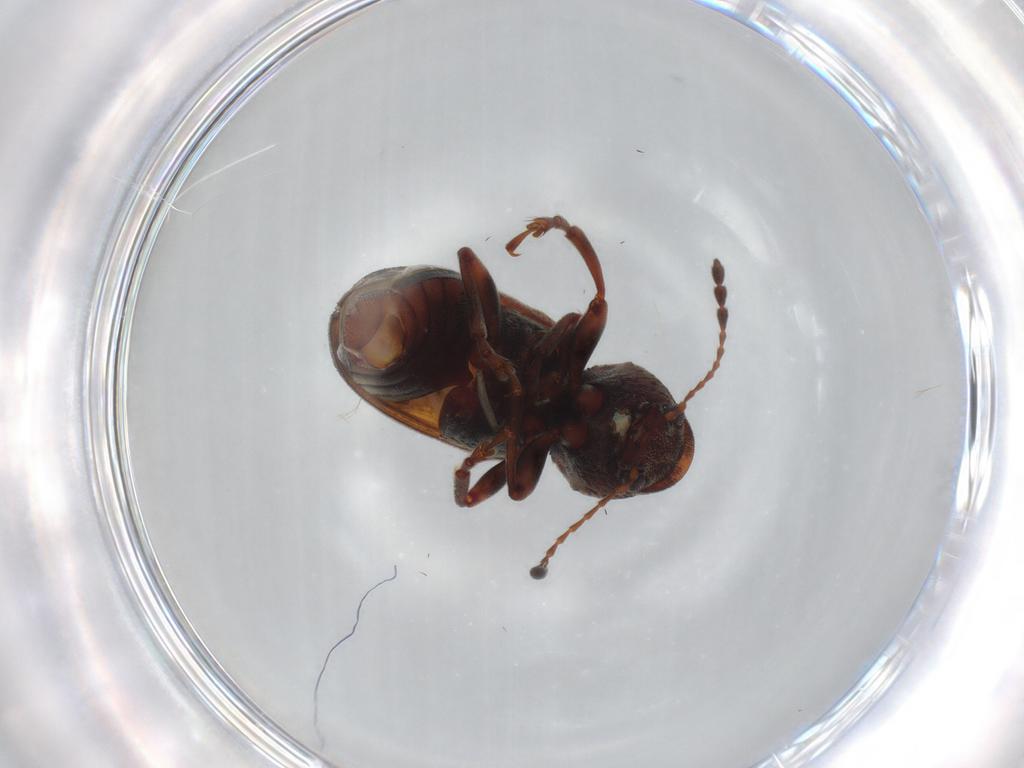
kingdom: Animalia
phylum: Arthropoda
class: Insecta
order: Coleoptera
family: Anthribidae
